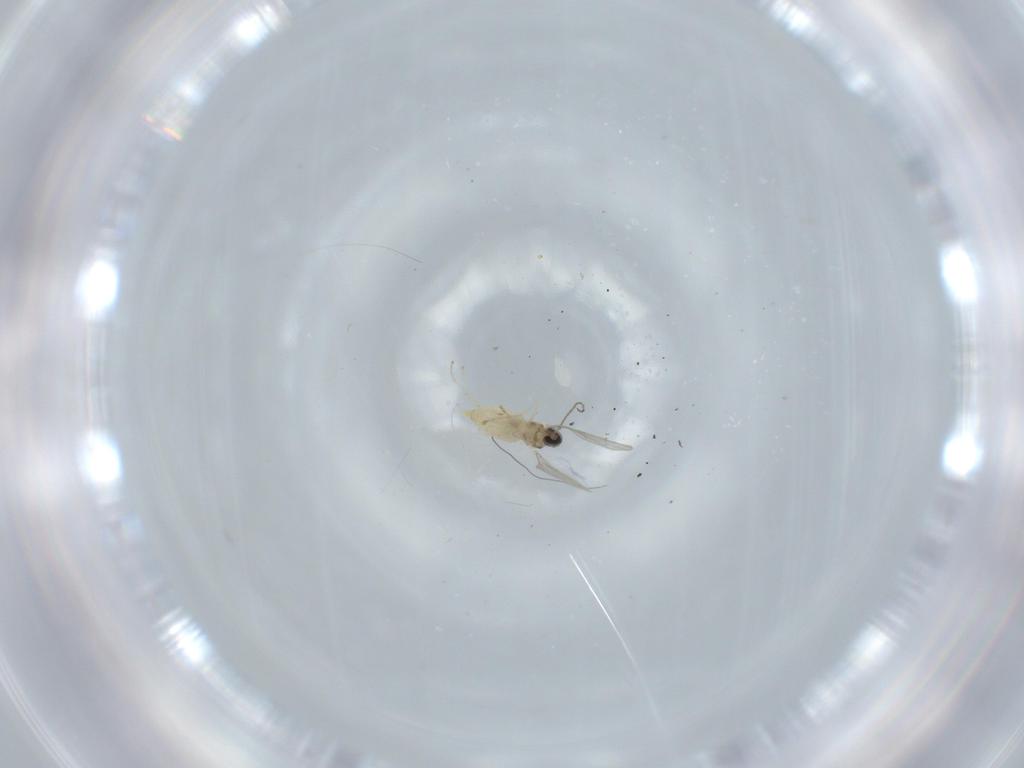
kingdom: Animalia
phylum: Arthropoda
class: Insecta
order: Diptera
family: Cecidomyiidae
